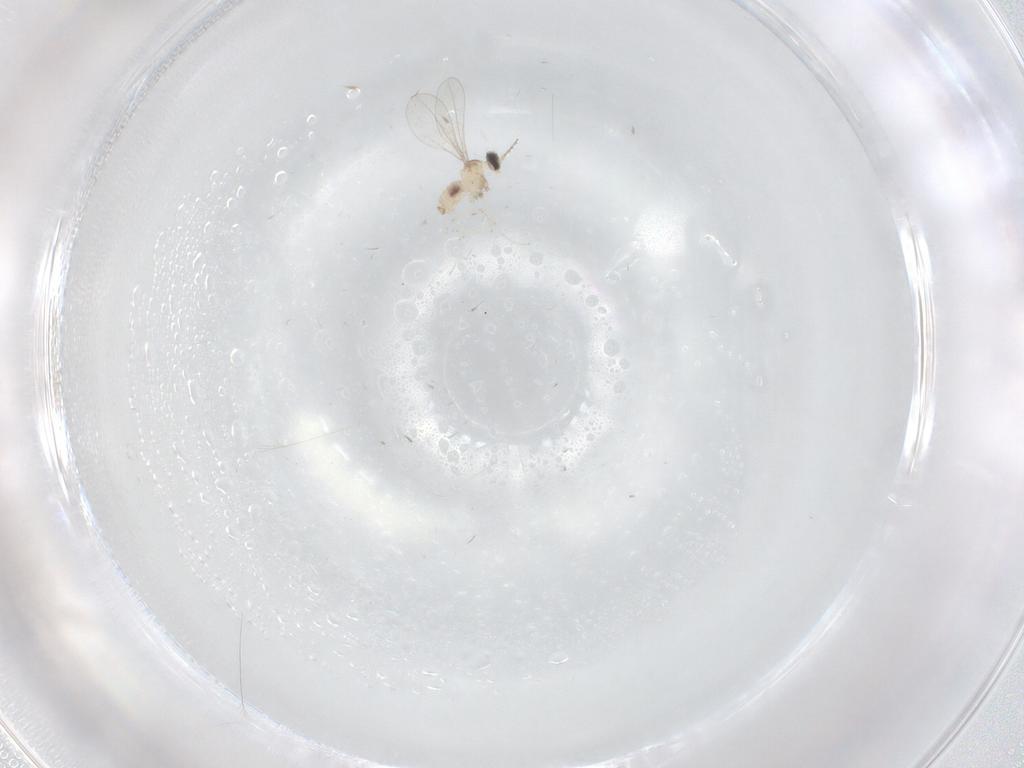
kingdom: Animalia
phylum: Arthropoda
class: Insecta
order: Diptera
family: Cecidomyiidae
